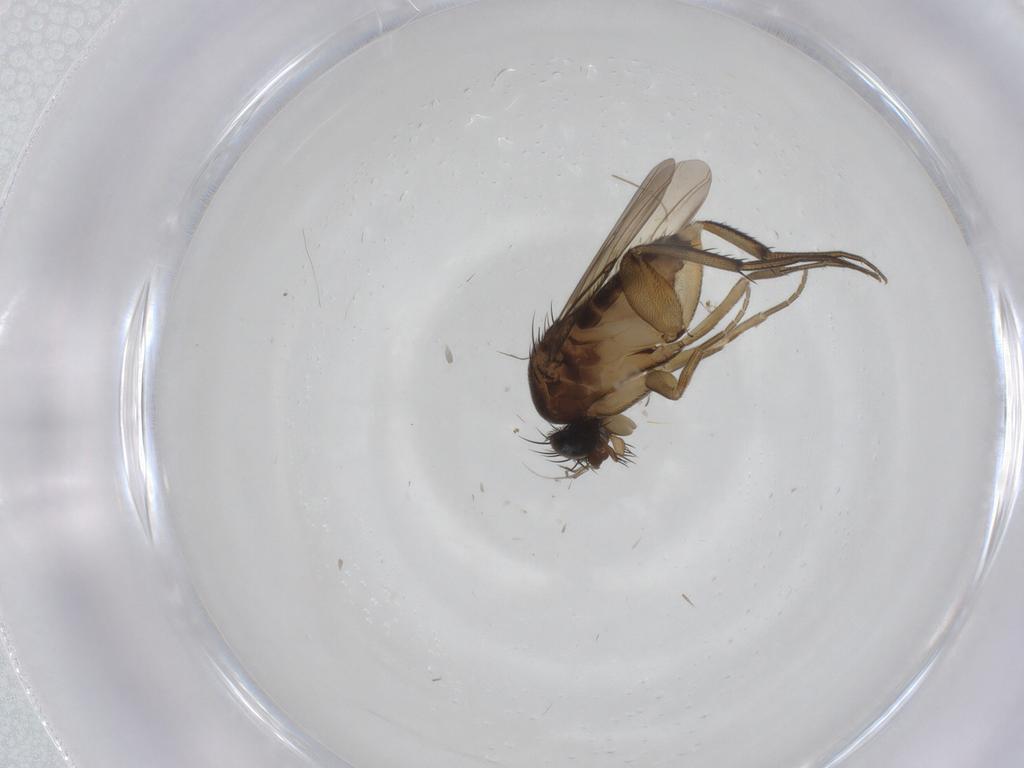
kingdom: Animalia
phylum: Arthropoda
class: Insecta
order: Diptera
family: Phoridae
